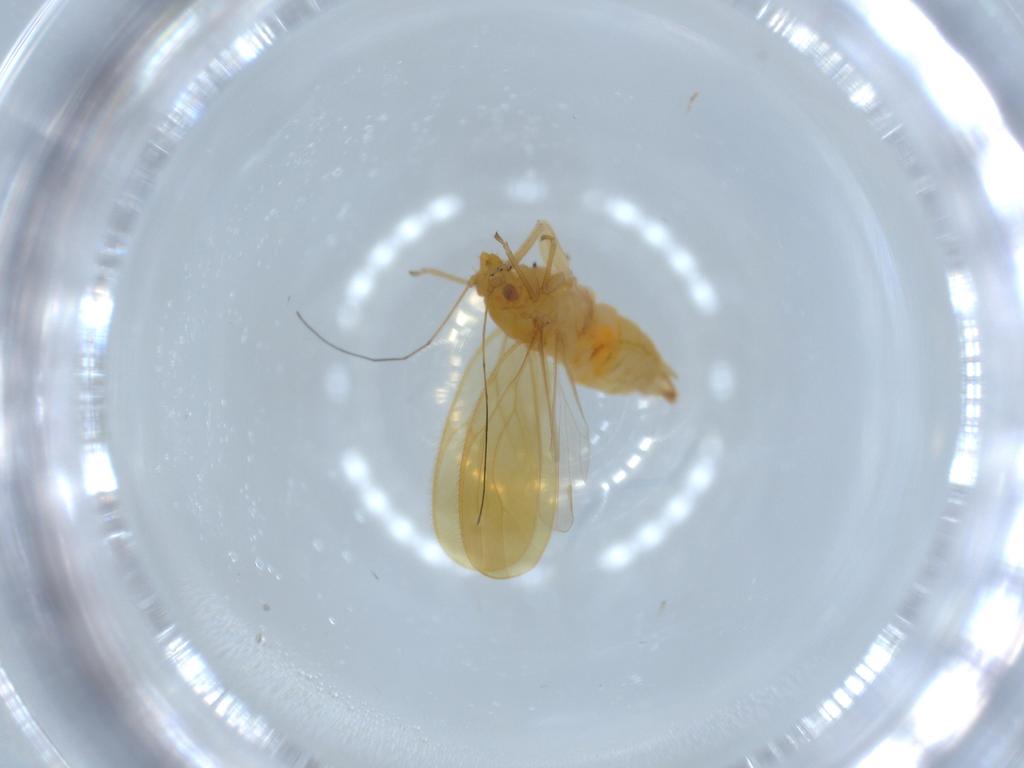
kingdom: Animalia
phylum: Arthropoda
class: Insecta
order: Hemiptera
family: Psyllidae
